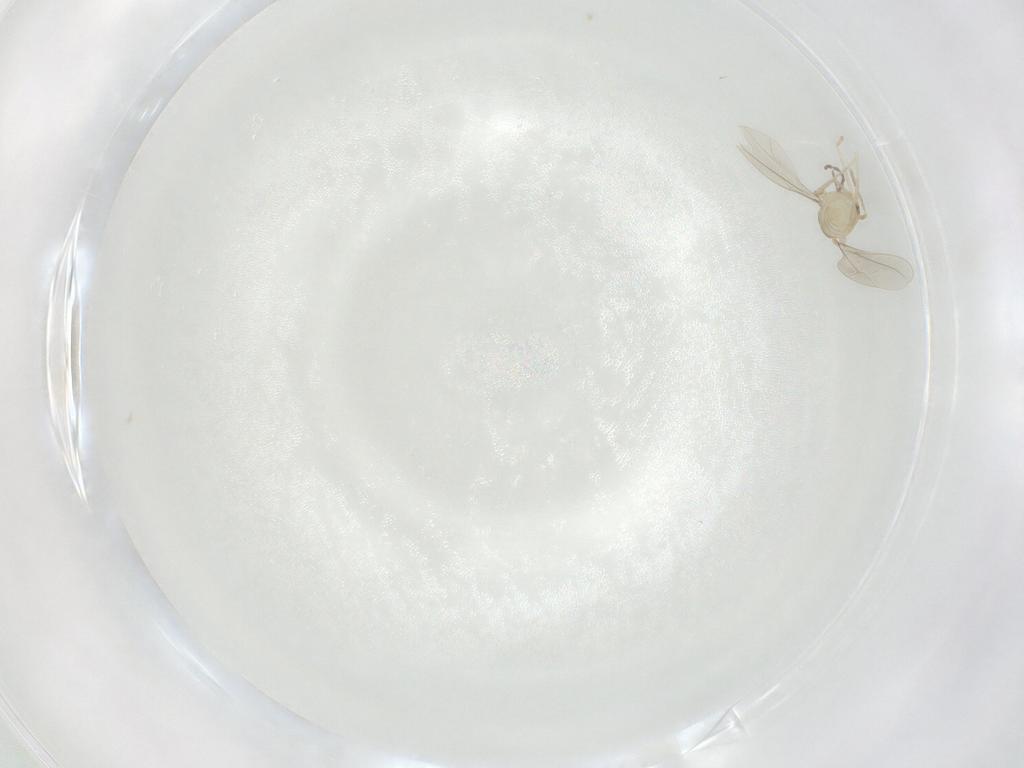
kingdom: Animalia
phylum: Arthropoda
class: Insecta
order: Diptera
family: Cecidomyiidae
